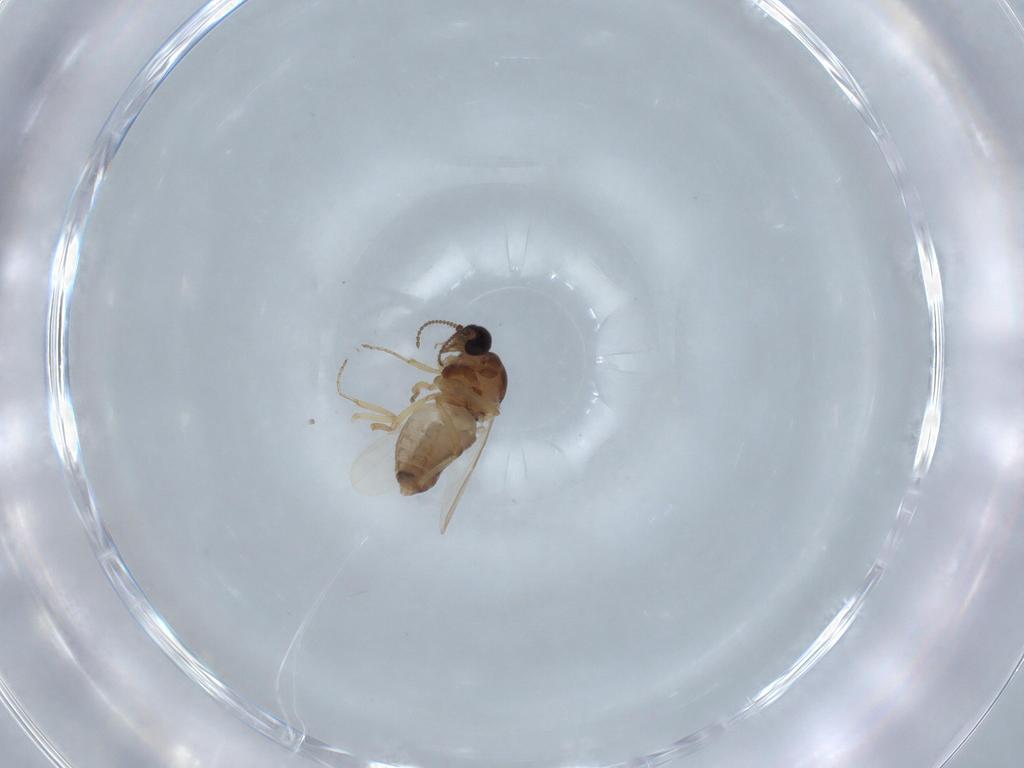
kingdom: Animalia
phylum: Arthropoda
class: Insecta
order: Diptera
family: Ceratopogonidae
